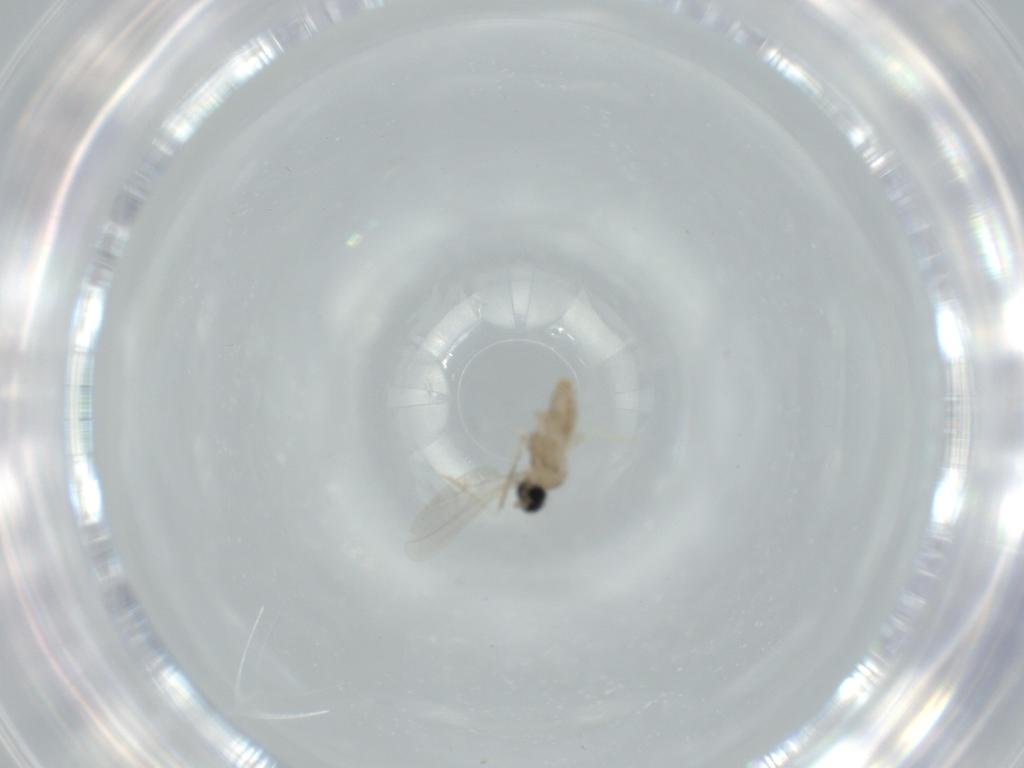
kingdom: Animalia
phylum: Arthropoda
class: Insecta
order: Diptera
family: Cecidomyiidae
